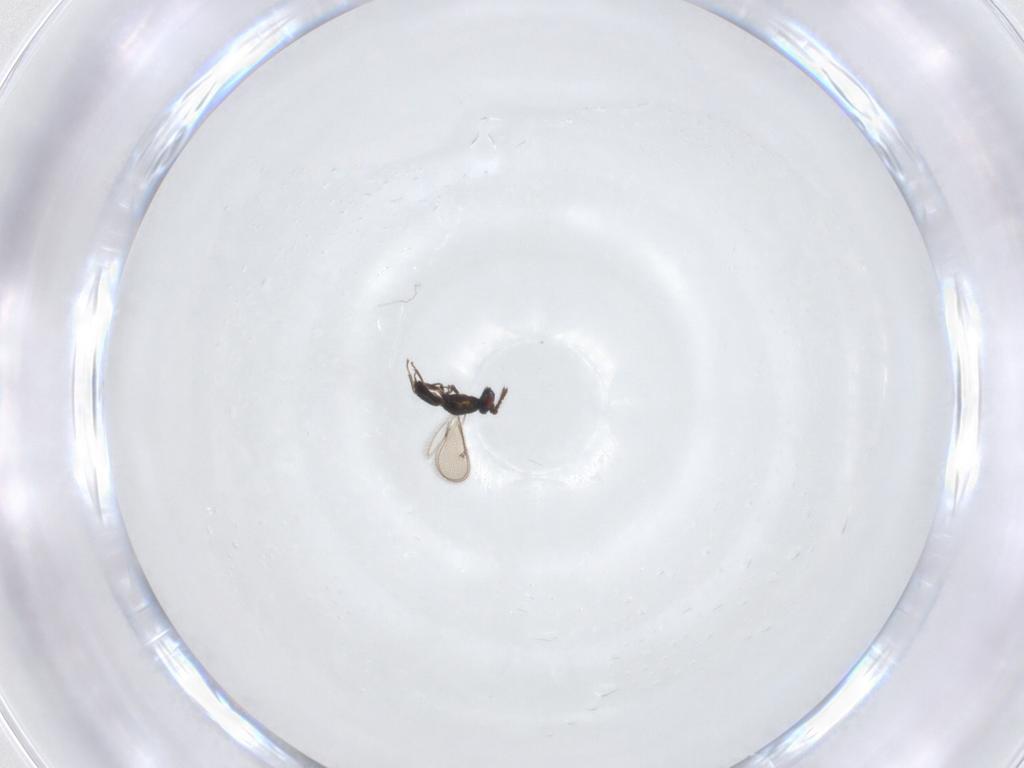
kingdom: Animalia
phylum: Arthropoda
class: Insecta
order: Hymenoptera
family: Eulophidae
